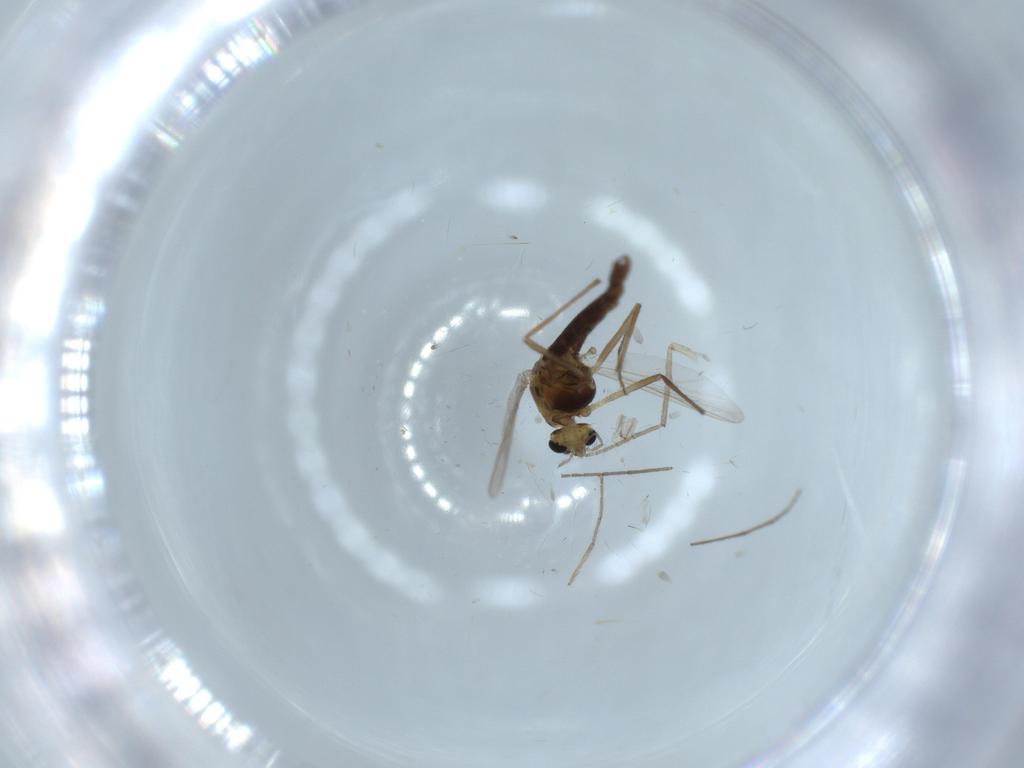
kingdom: Animalia
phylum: Arthropoda
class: Insecta
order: Diptera
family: Chironomidae
